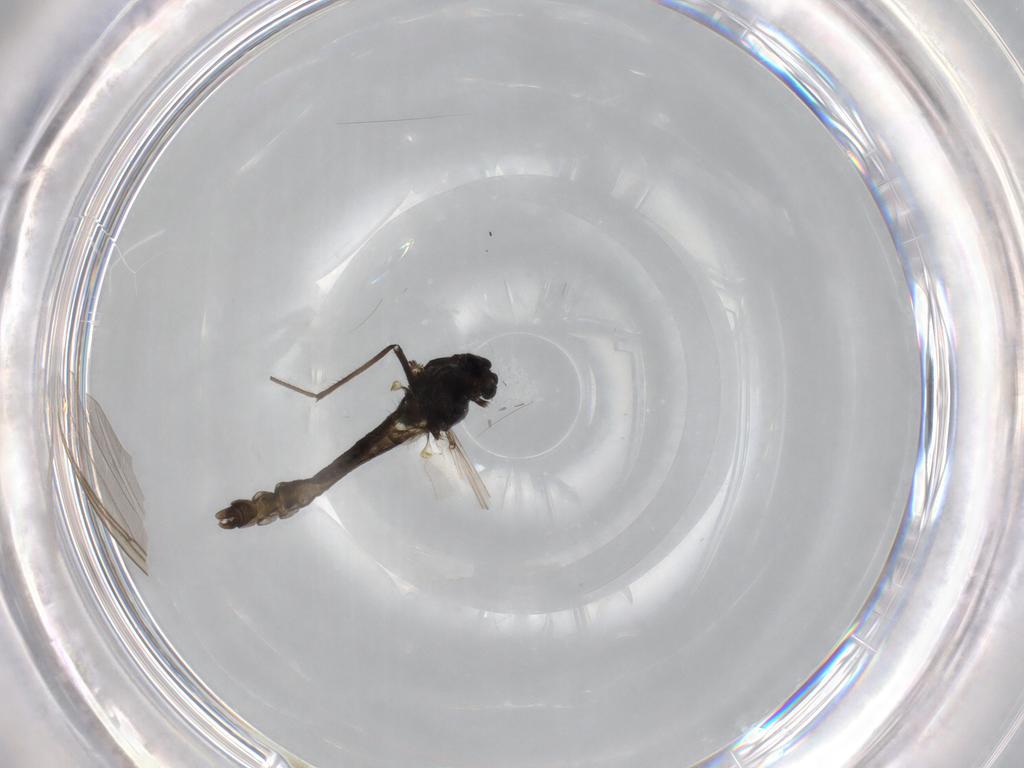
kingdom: Animalia
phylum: Arthropoda
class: Insecta
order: Diptera
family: Chironomidae
